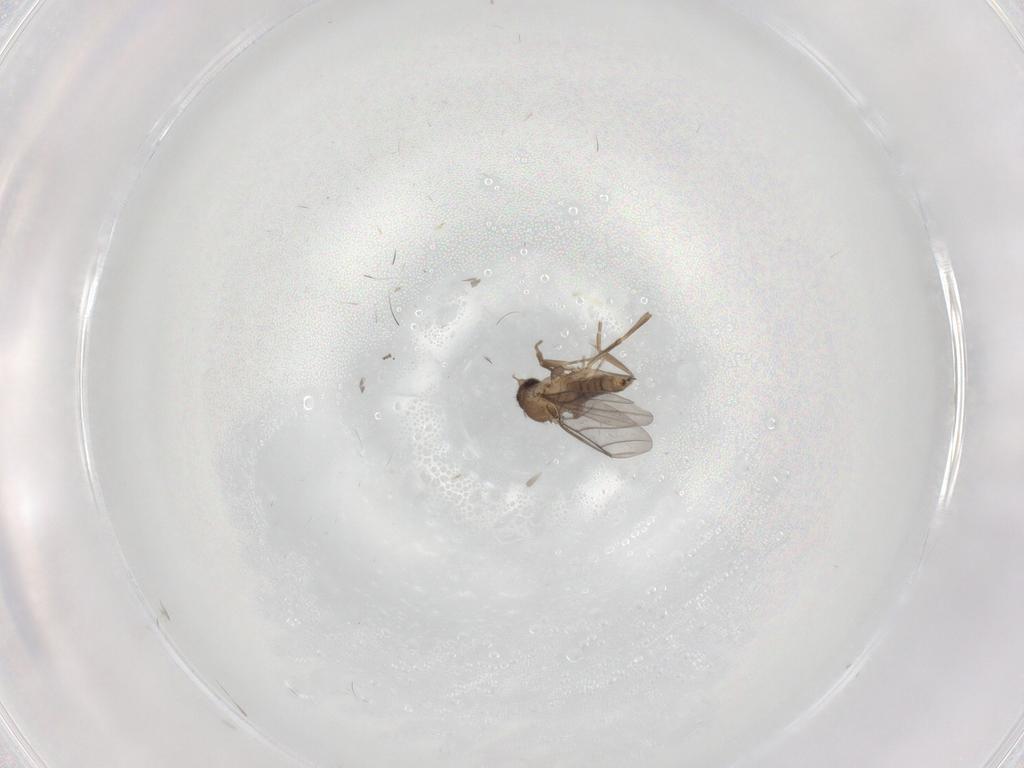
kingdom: Animalia
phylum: Arthropoda
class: Insecta
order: Diptera
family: Cecidomyiidae
